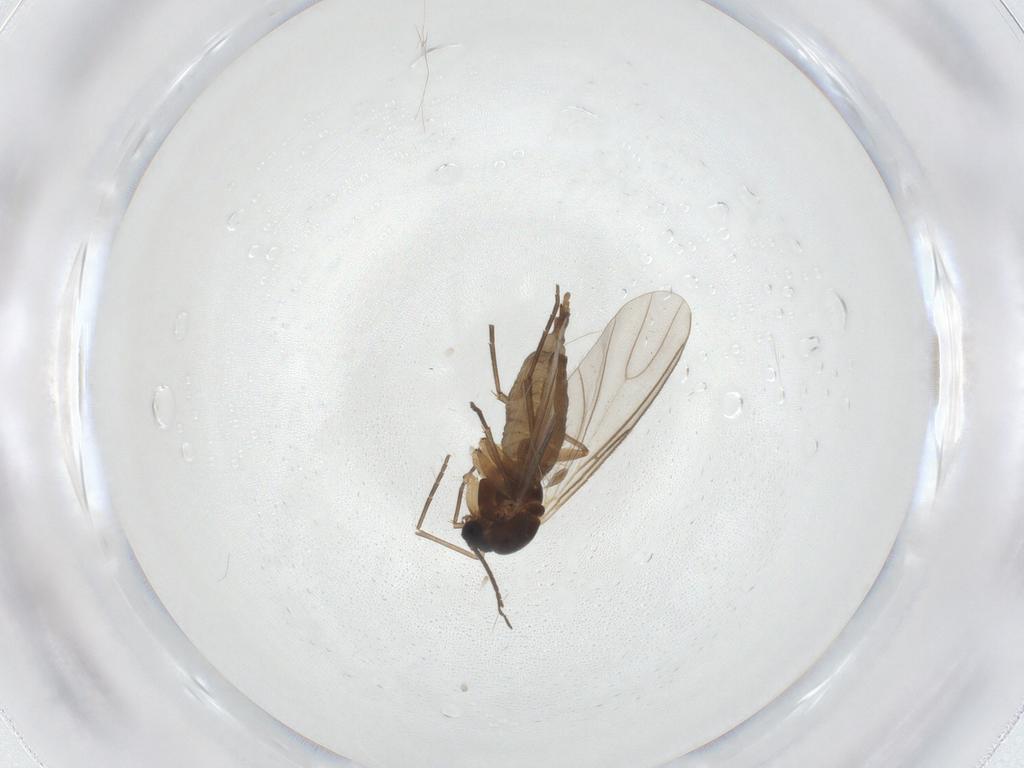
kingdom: Animalia
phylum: Arthropoda
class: Insecta
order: Diptera
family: Sciaridae
